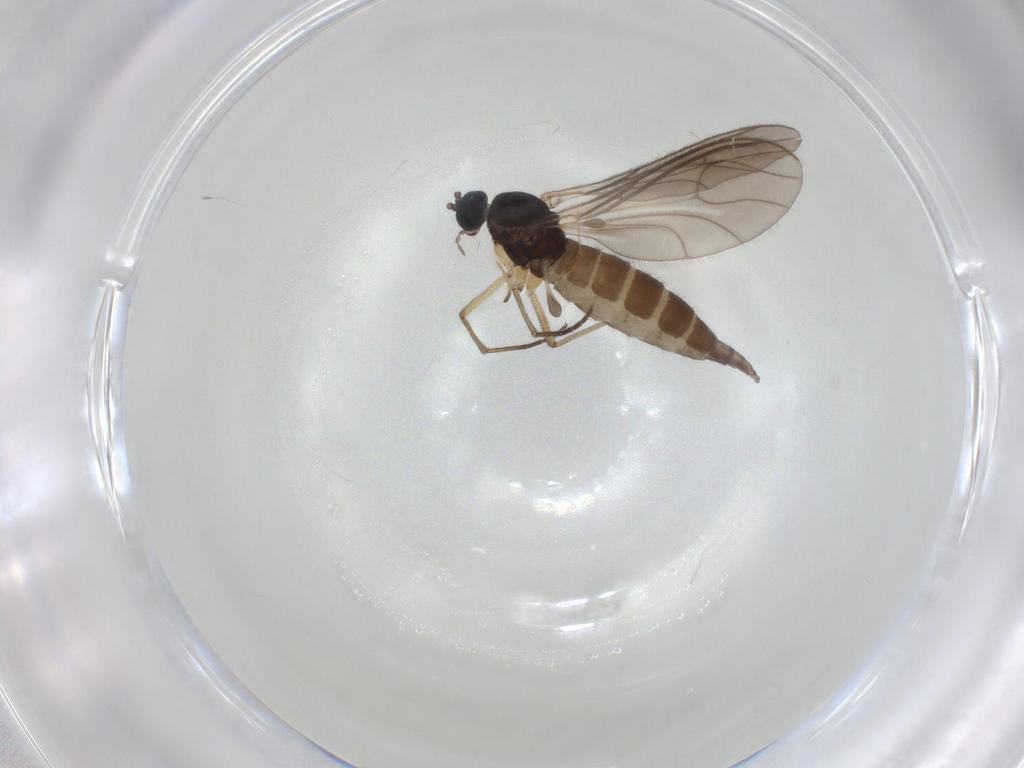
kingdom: Animalia
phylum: Arthropoda
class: Insecta
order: Diptera
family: Sciaridae
